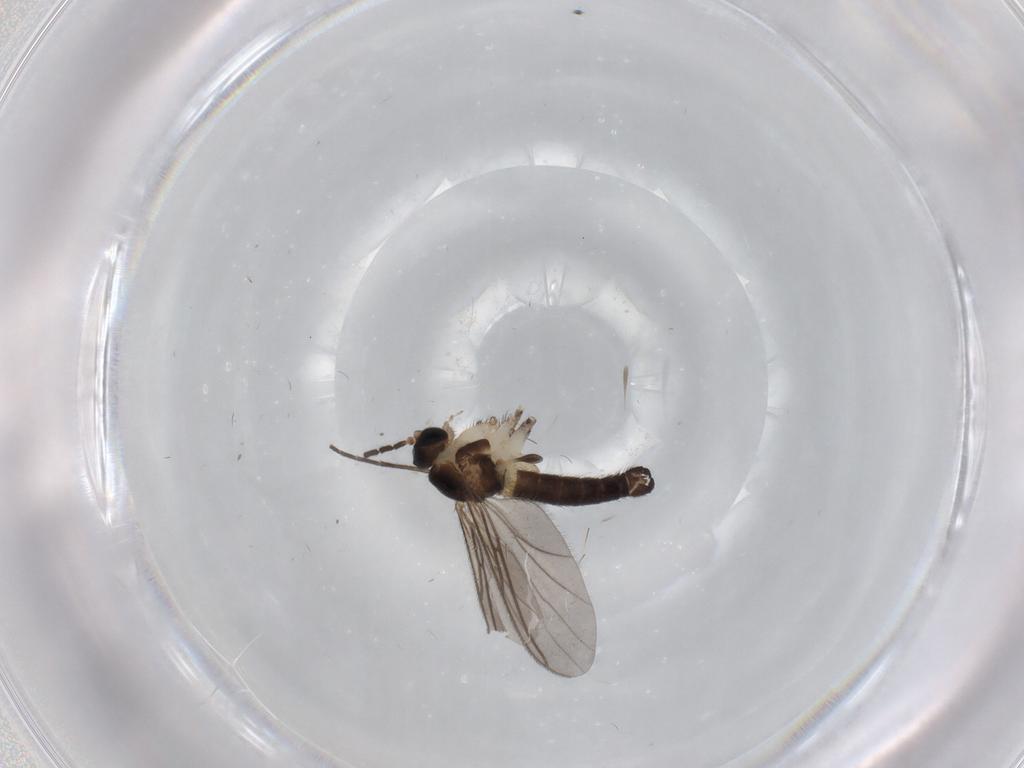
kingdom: Animalia
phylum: Arthropoda
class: Insecta
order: Diptera
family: Sciaridae
